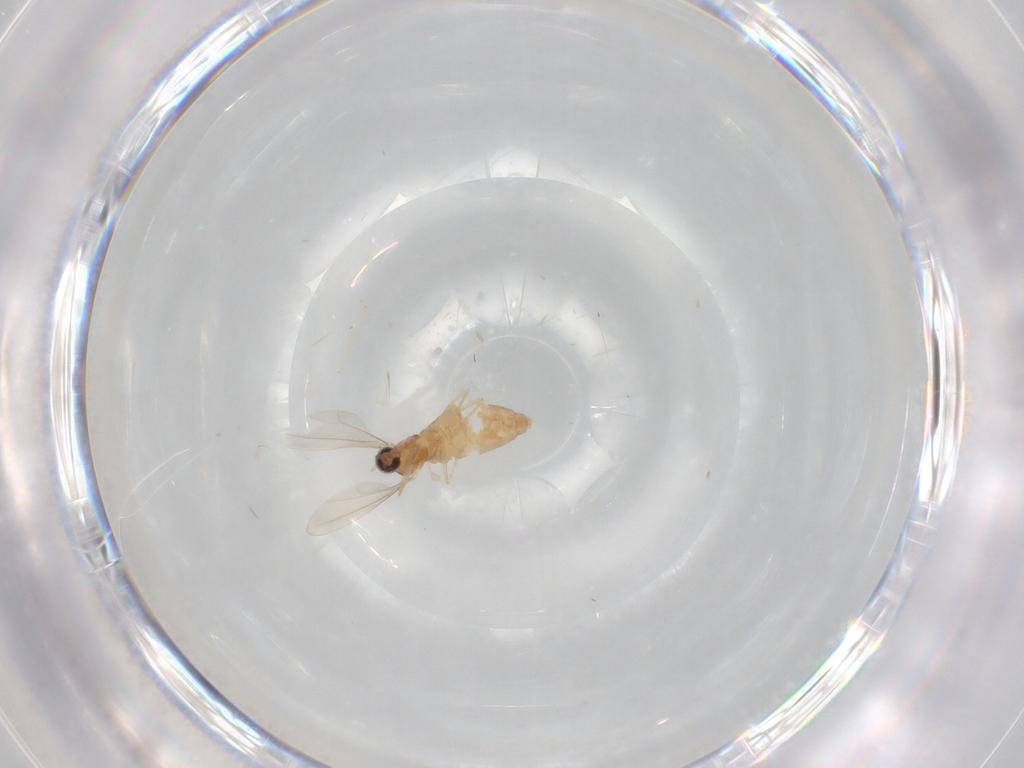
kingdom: Animalia
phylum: Arthropoda
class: Insecta
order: Diptera
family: Cecidomyiidae
